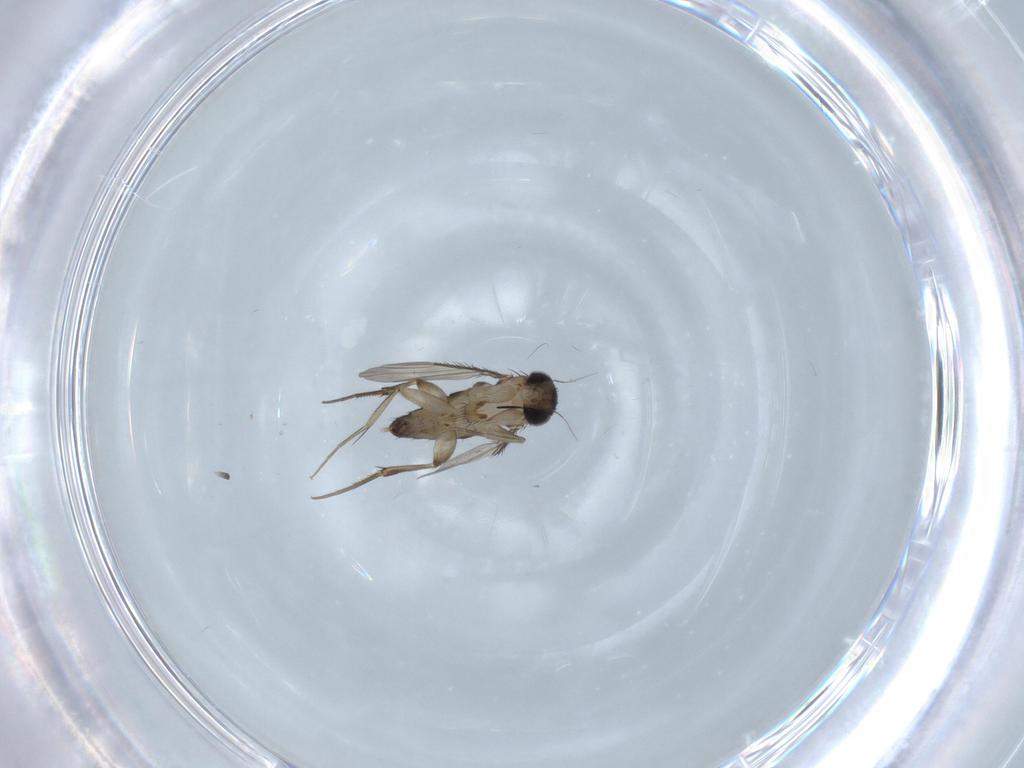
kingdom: Animalia
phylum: Arthropoda
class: Insecta
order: Diptera
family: Phoridae
